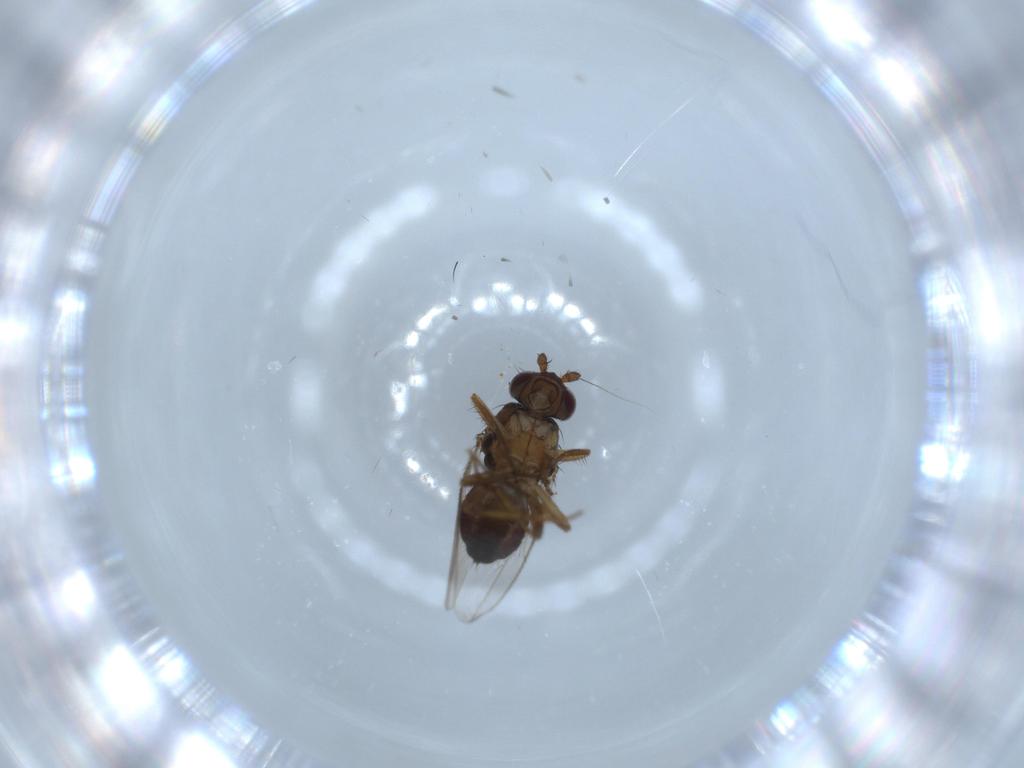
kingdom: Animalia
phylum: Arthropoda
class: Insecta
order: Diptera
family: Sphaeroceridae
